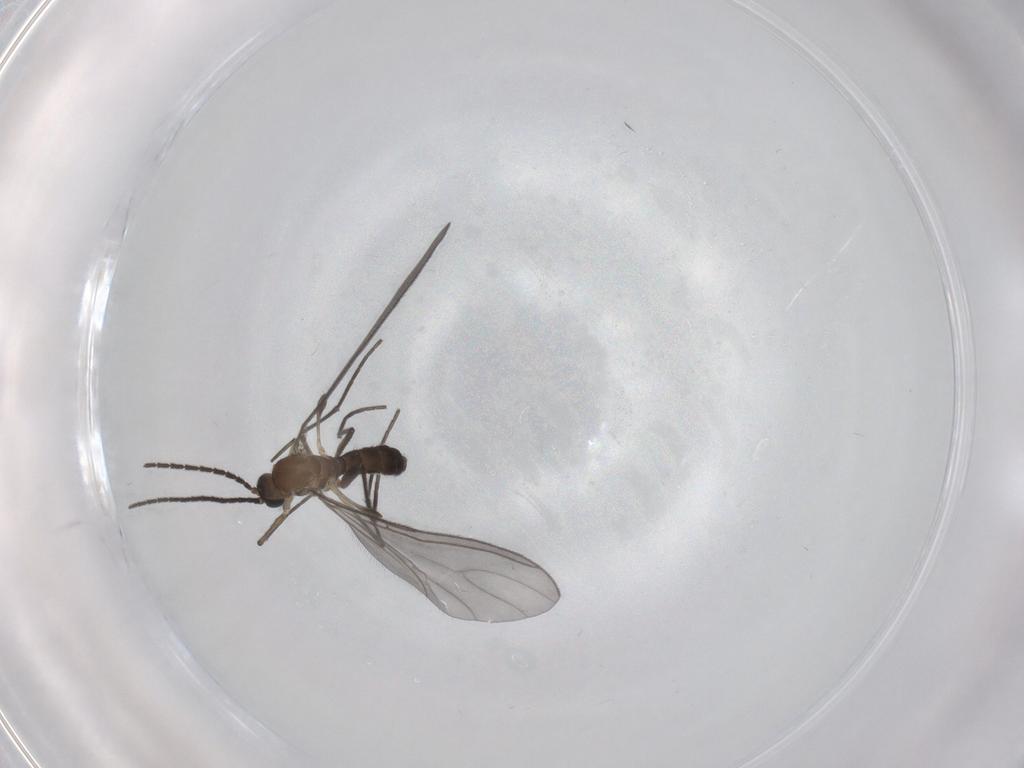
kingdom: Animalia
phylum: Arthropoda
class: Insecta
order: Diptera
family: Sciaridae
